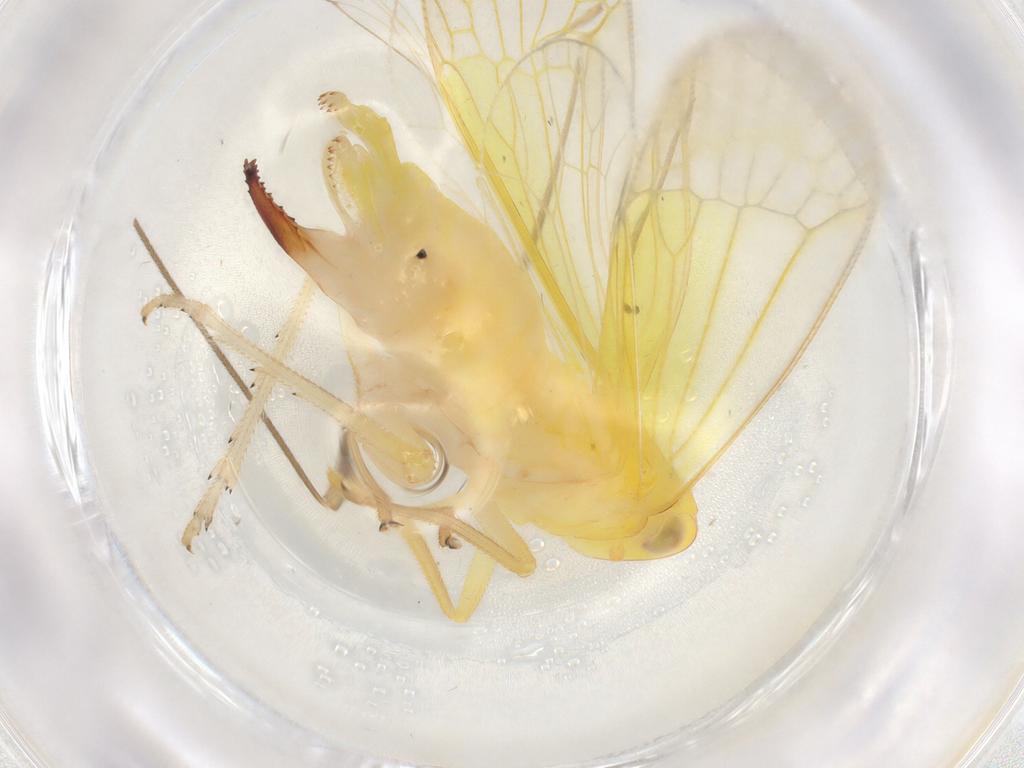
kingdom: Animalia
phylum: Arthropoda
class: Insecta
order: Hemiptera
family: Tropiduchidae
